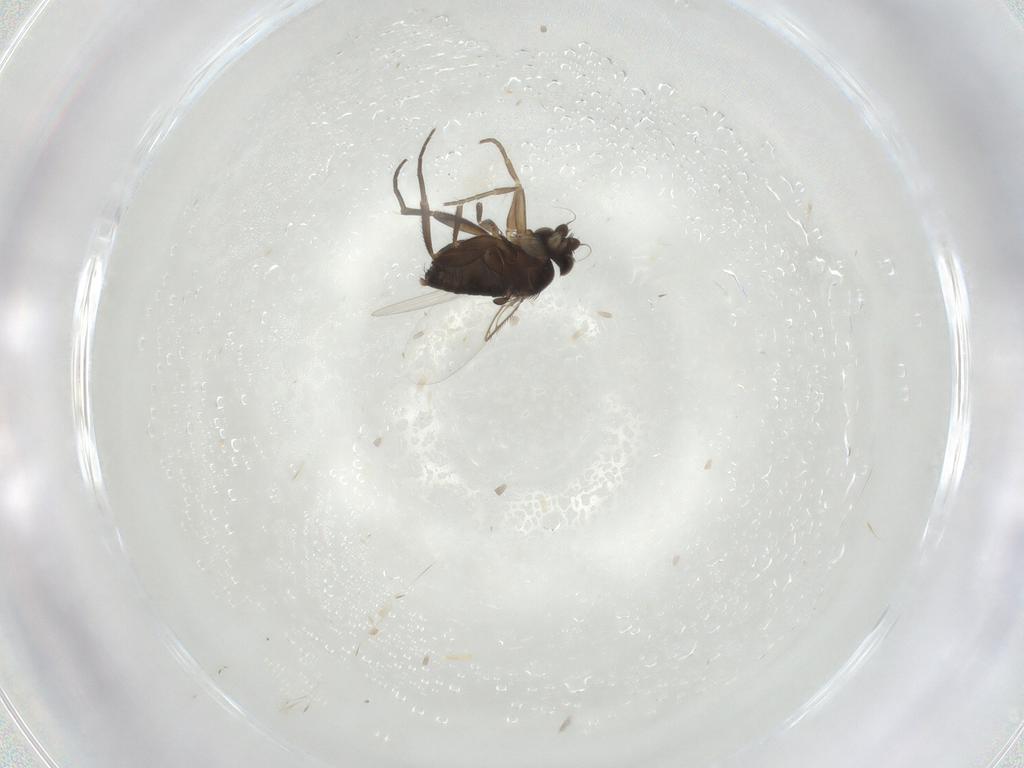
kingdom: Animalia
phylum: Arthropoda
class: Insecta
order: Diptera
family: Phoridae
